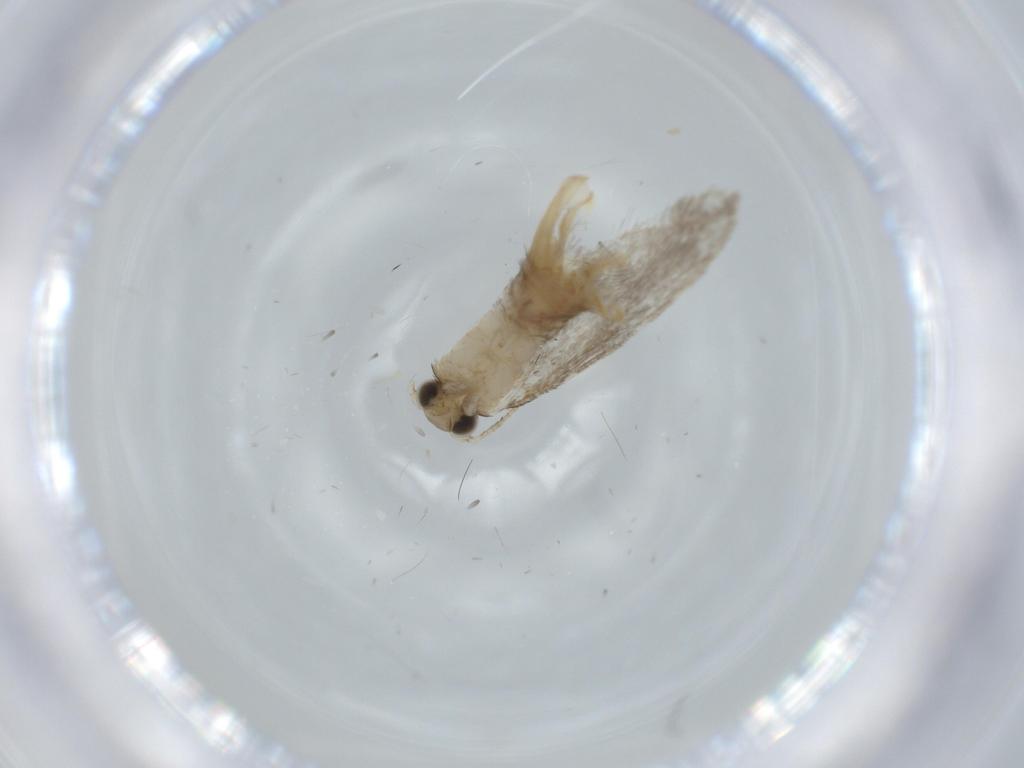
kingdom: Animalia
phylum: Arthropoda
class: Insecta
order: Lepidoptera
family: Tineidae
